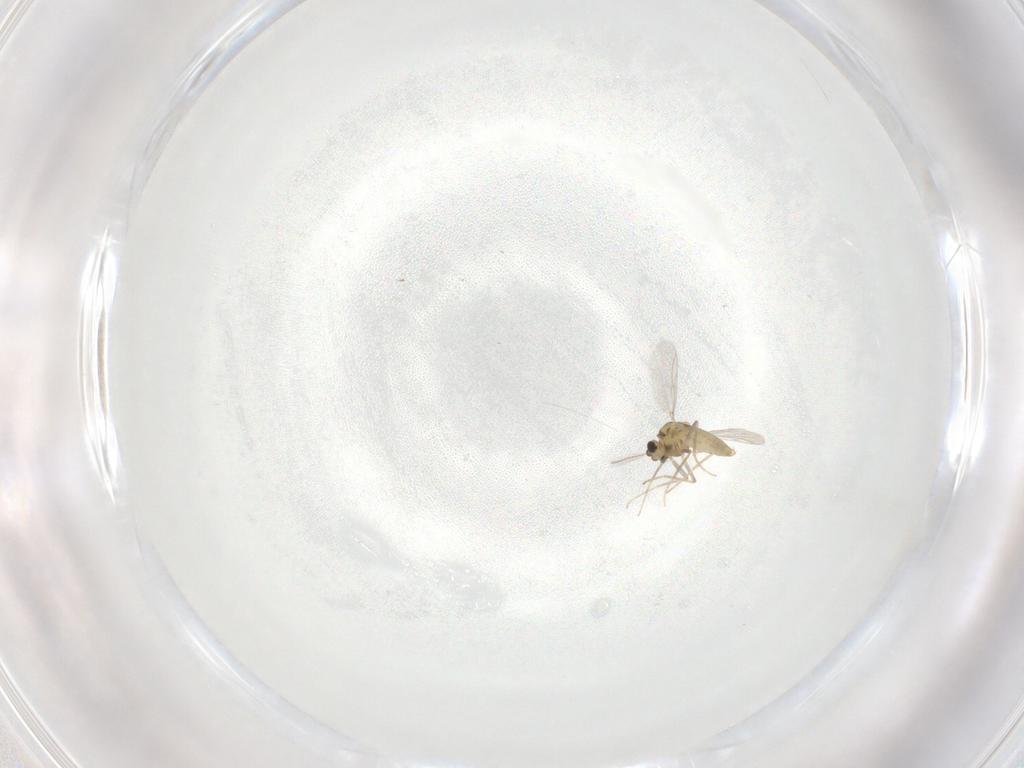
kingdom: Animalia
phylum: Arthropoda
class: Insecta
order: Diptera
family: Chironomidae
